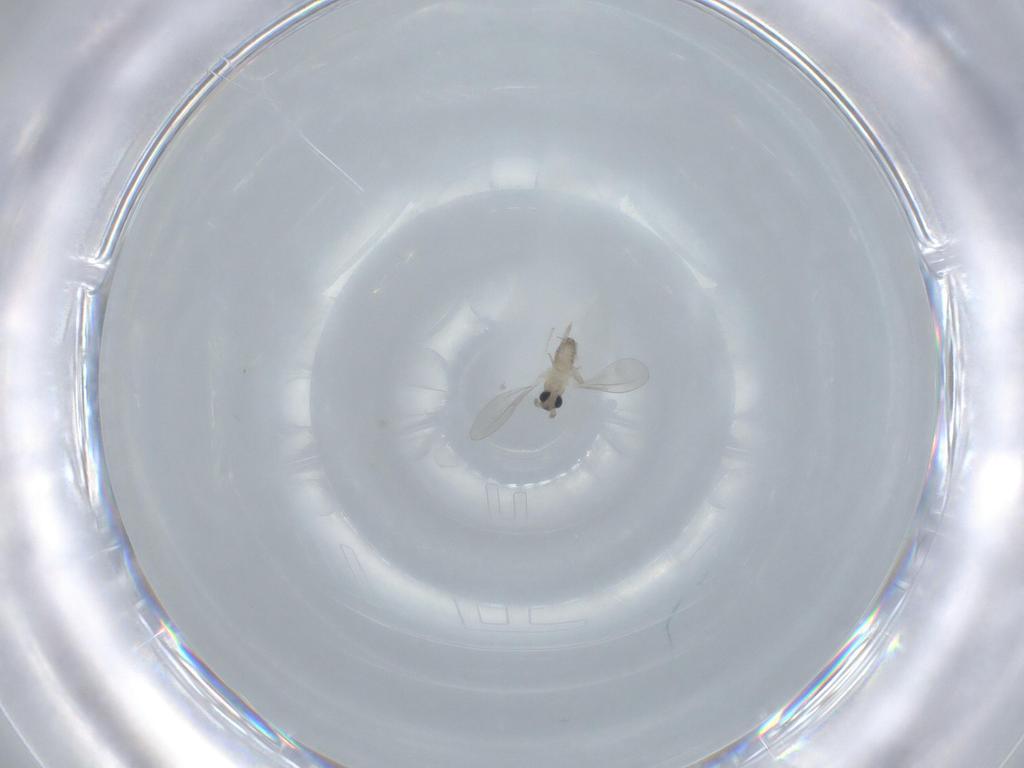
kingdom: Animalia
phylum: Arthropoda
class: Insecta
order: Diptera
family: Cecidomyiidae
